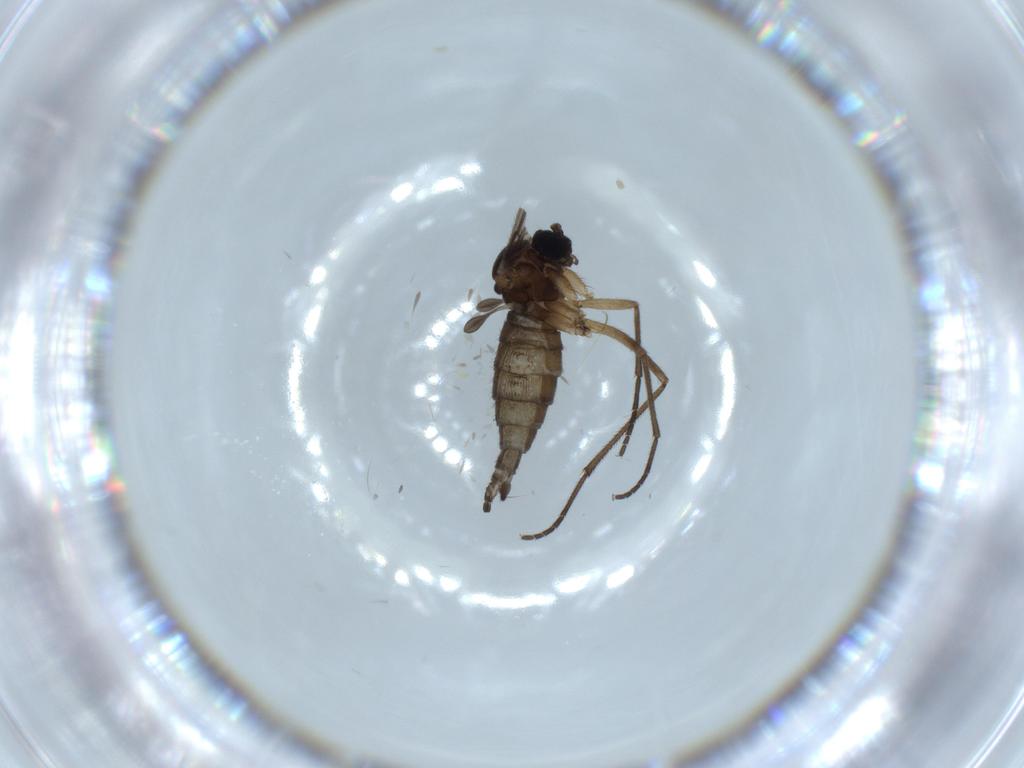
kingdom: Animalia
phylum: Arthropoda
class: Insecta
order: Diptera
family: Sciaridae
